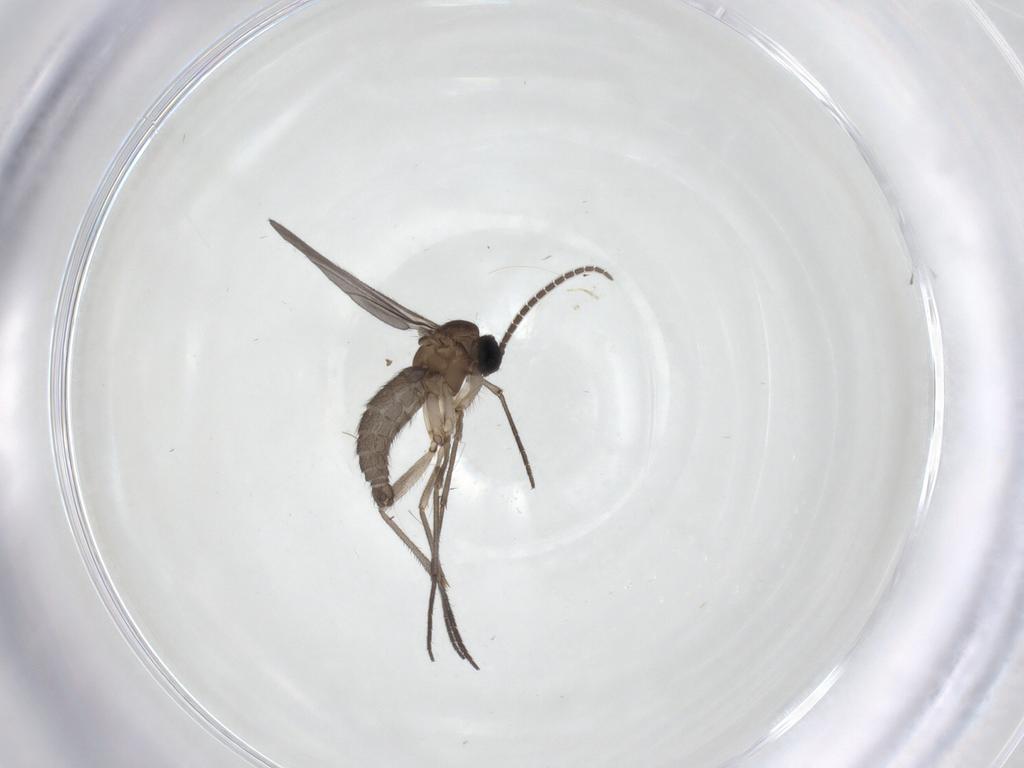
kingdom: Animalia
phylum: Arthropoda
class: Insecta
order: Diptera
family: Sciaridae
